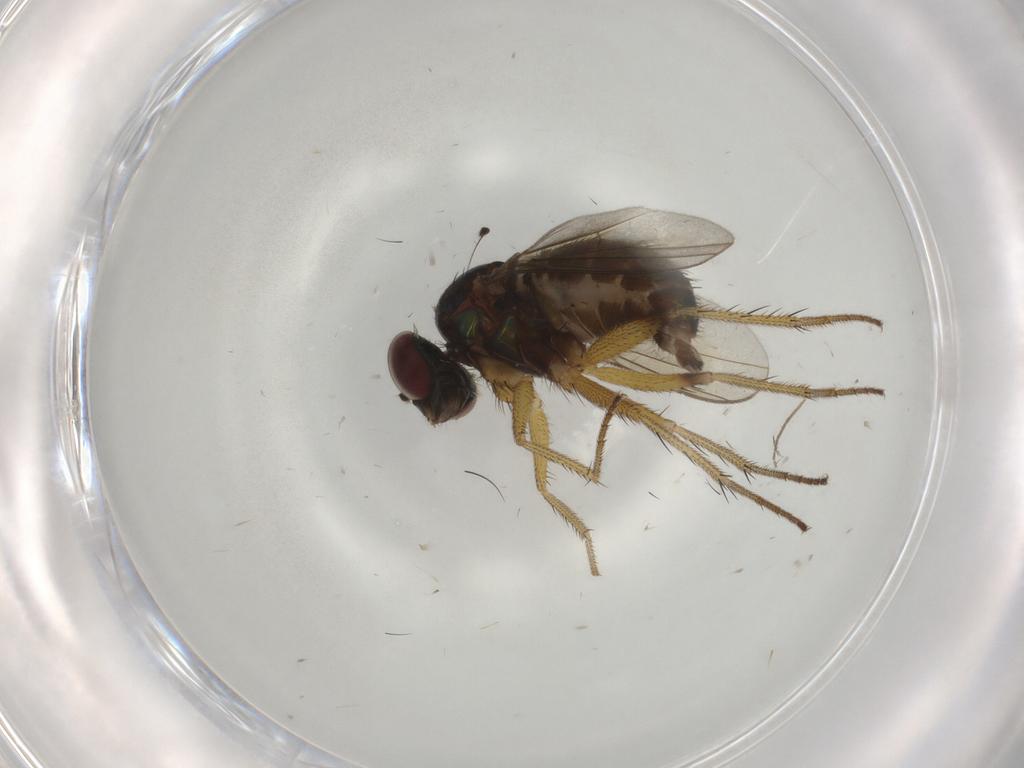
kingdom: Animalia
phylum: Arthropoda
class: Insecta
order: Diptera
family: Dolichopodidae
